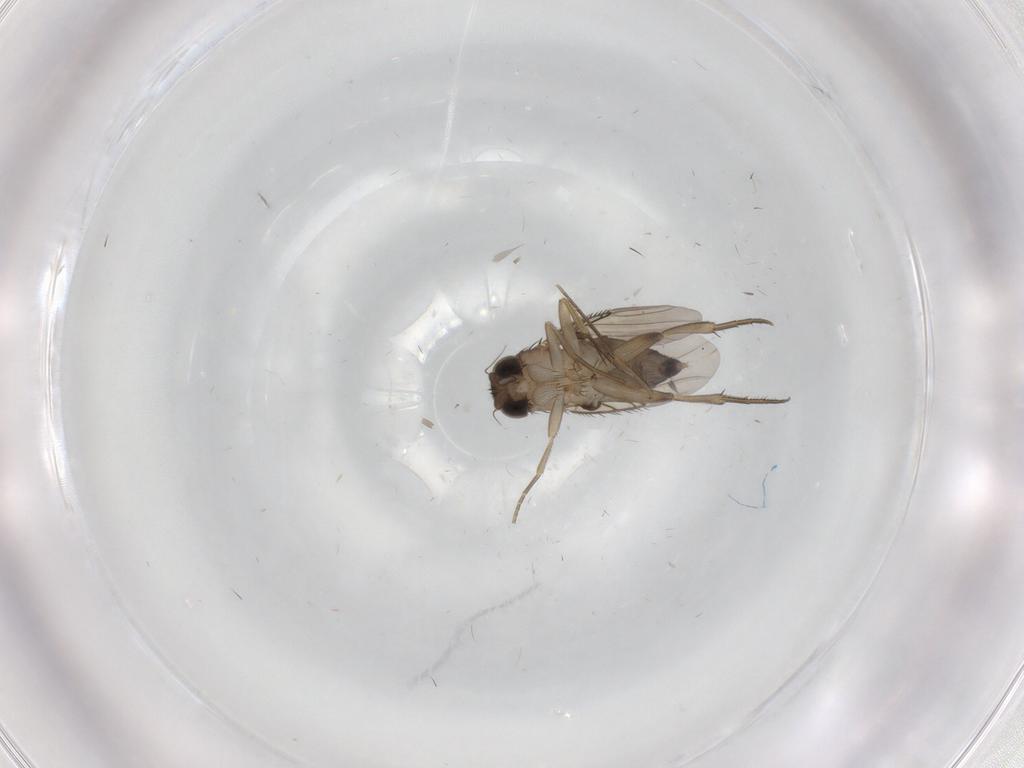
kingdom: Animalia
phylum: Arthropoda
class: Insecta
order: Diptera
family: Phoridae
